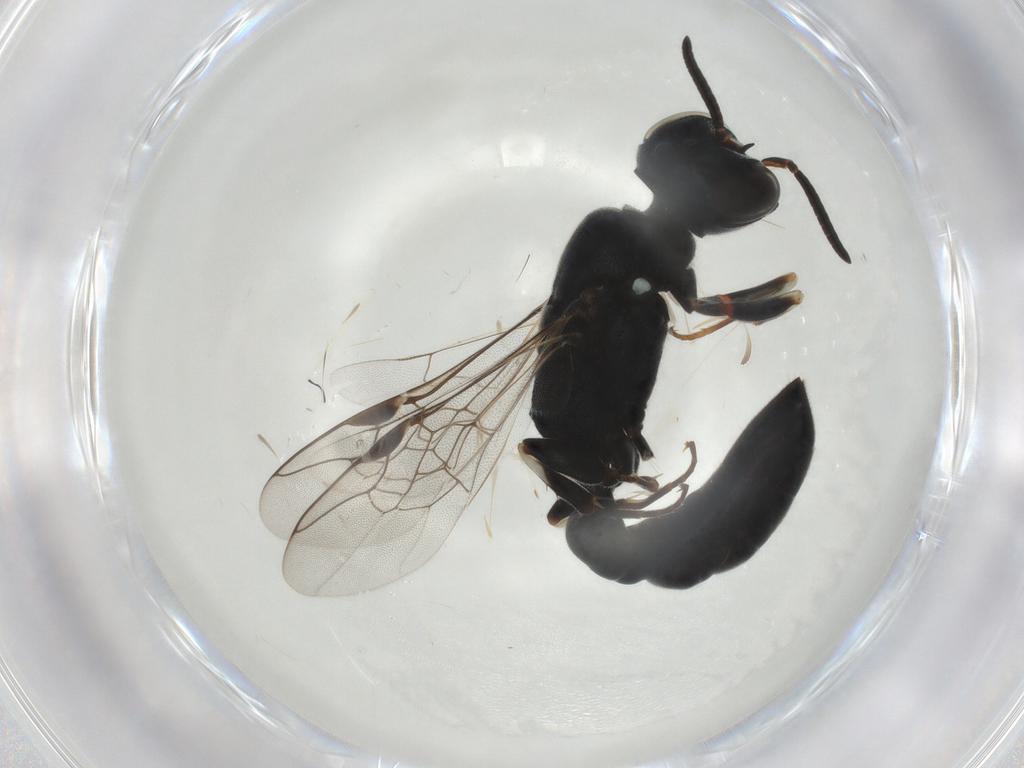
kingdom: Animalia
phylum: Arthropoda
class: Insecta
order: Hymenoptera
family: Pemphredonidae
